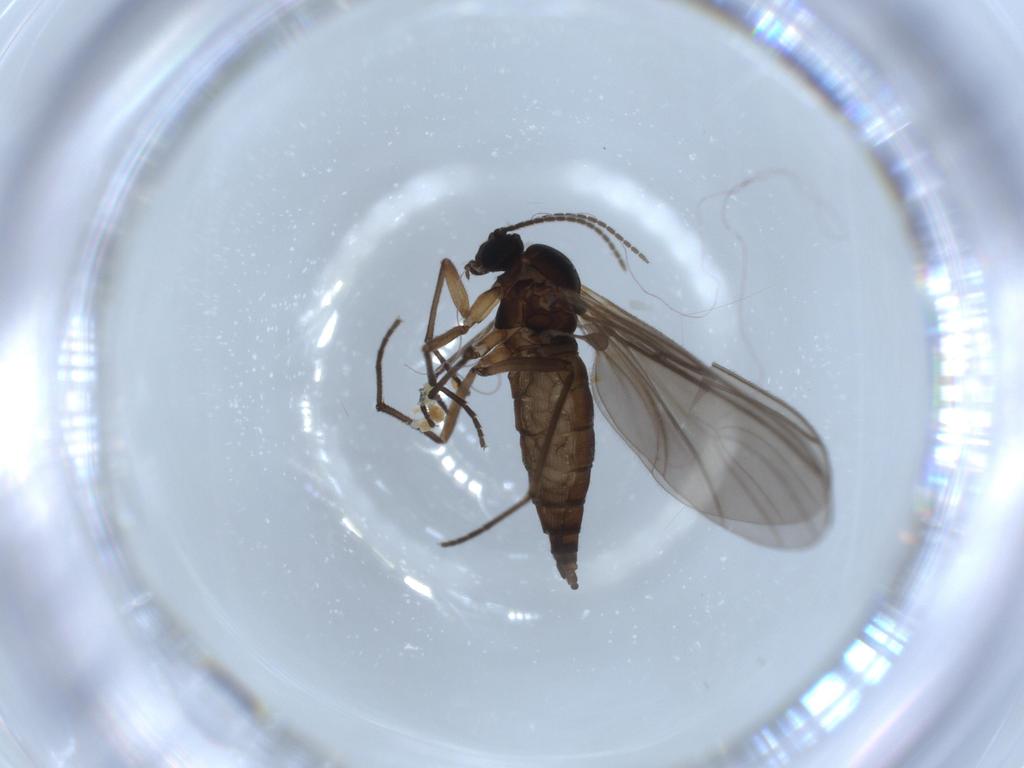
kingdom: Animalia
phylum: Arthropoda
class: Insecta
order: Diptera
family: Sciaridae
